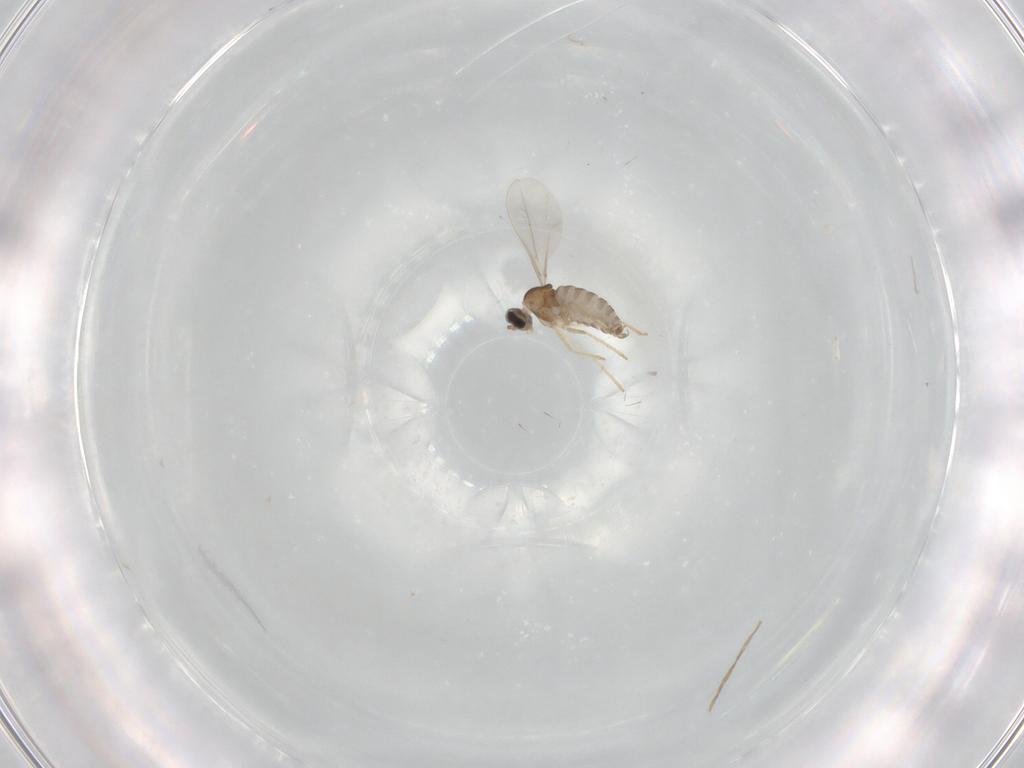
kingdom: Animalia
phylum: Arthropoda
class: Insecta
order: Diptera
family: Cecidomyiidae
